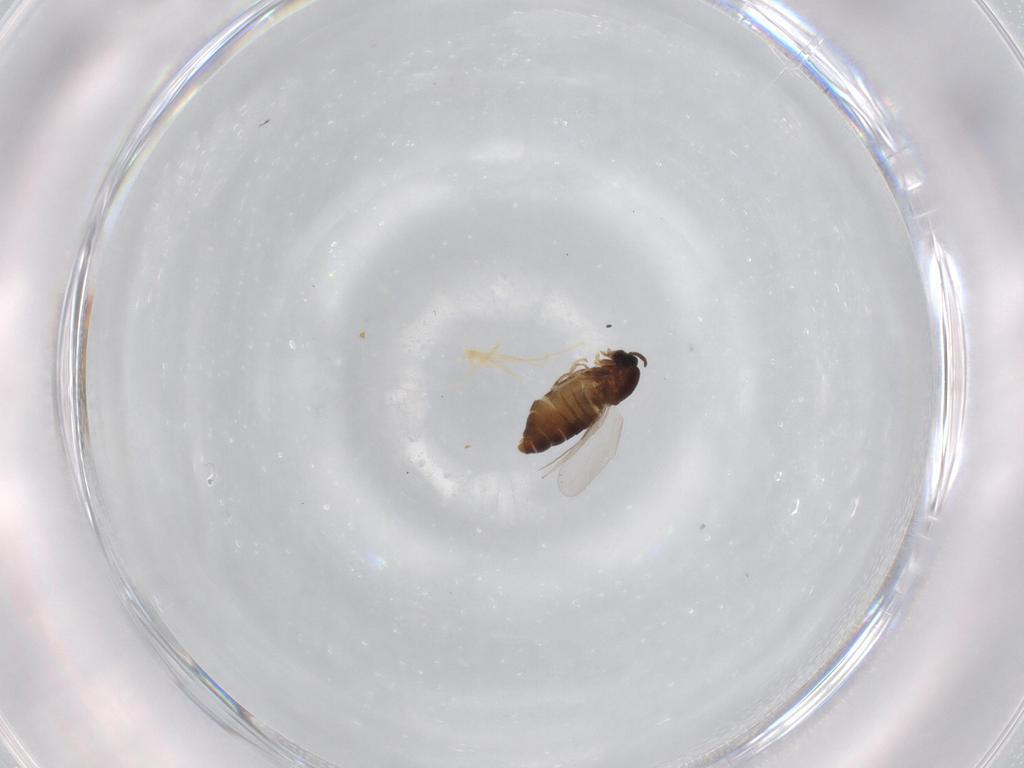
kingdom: Animalia
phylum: Arthropoda
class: Insecta
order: Diptera
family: Scatopsidae
